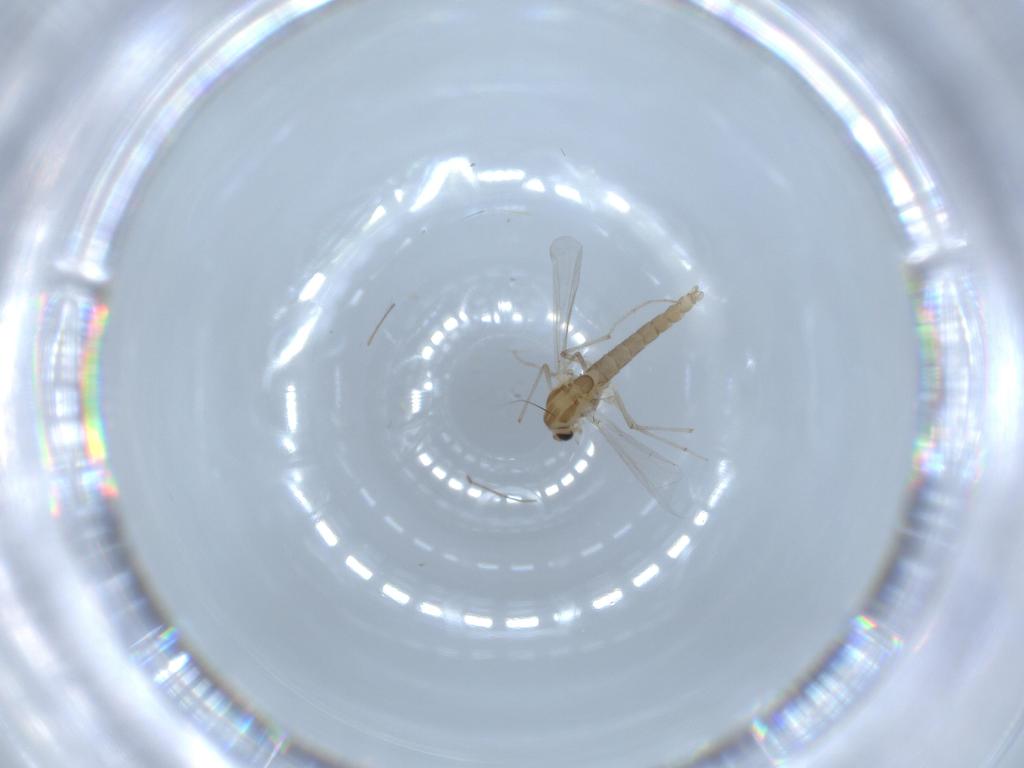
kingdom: Animalia
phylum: Arthropoda
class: Insecta
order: Diptera
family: Chironomidae
